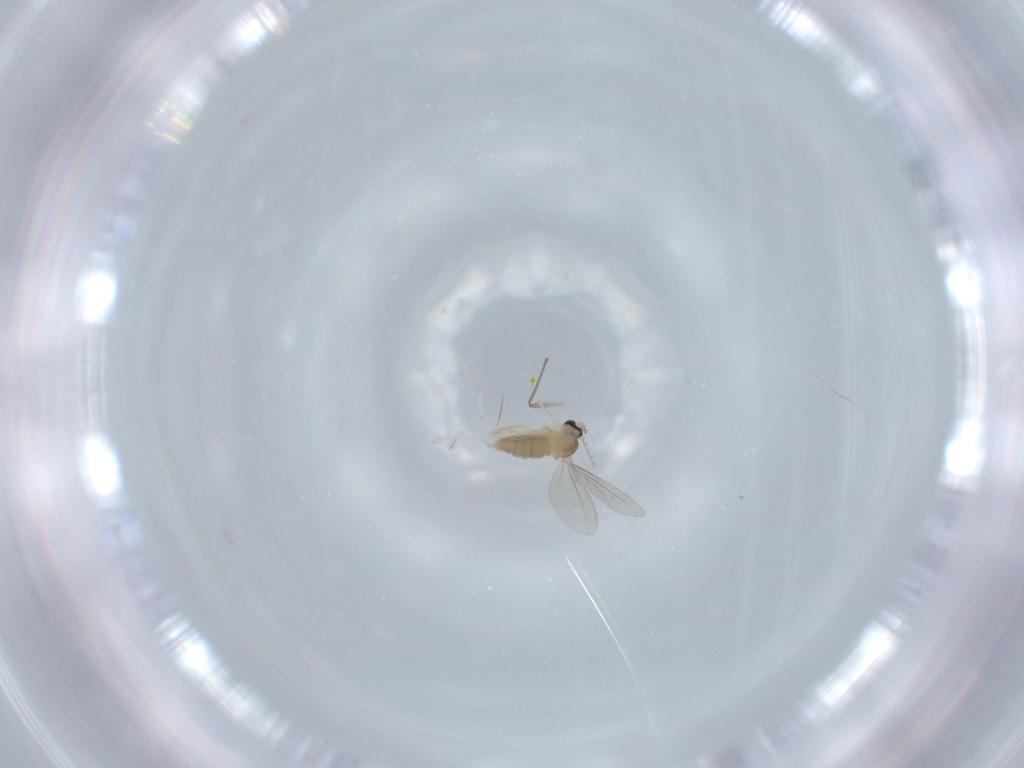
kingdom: Animalia
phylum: Arthropoda
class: Insecta
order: Diptera
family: Cecidomyiidae
